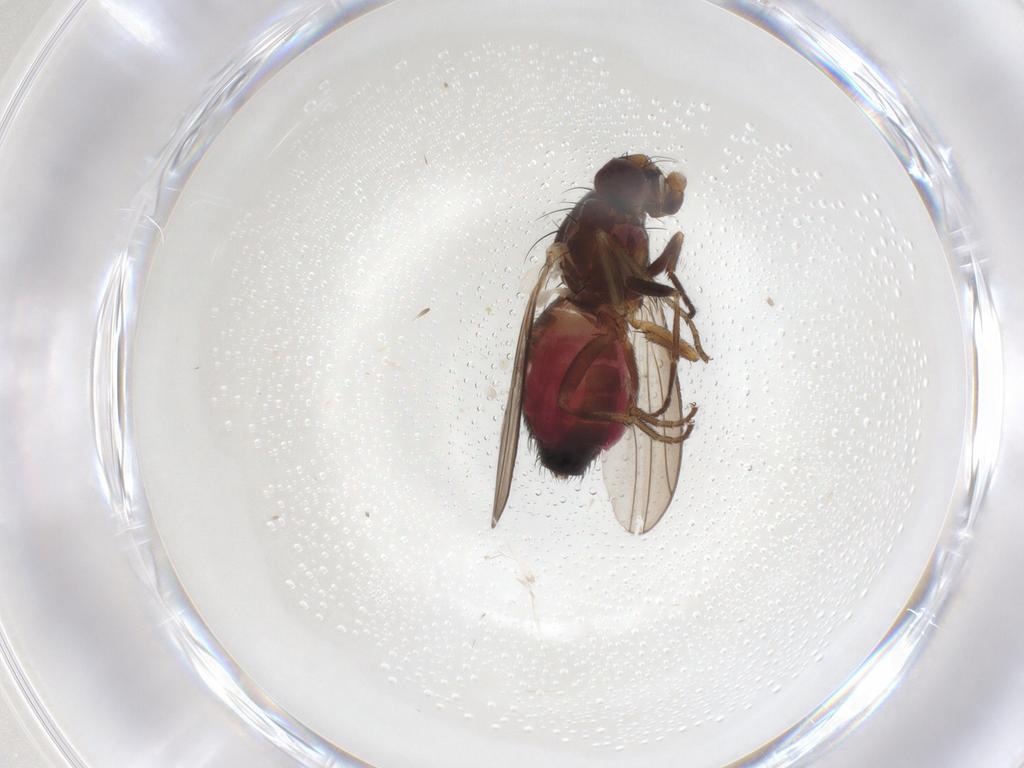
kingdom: Animalia
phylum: Arthropoda
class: Insecta
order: Diptera
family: Heleomyzidae
